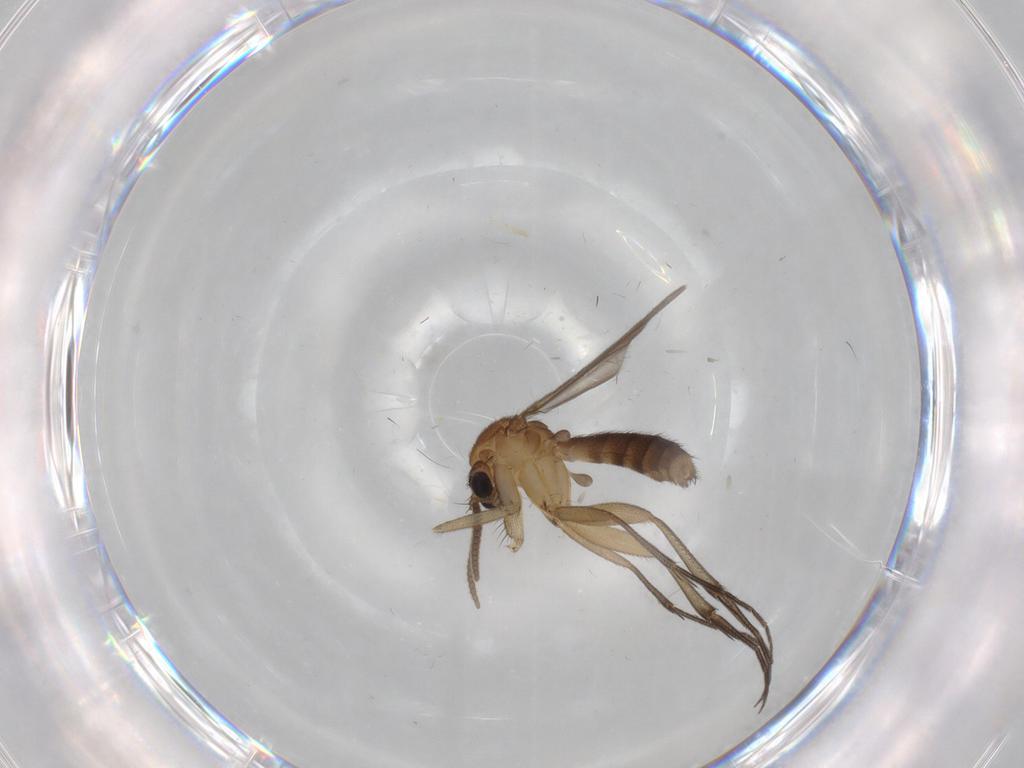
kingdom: Animalia
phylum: Arthropoda
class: Insecta
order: Diptera
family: Mycetophilidae
